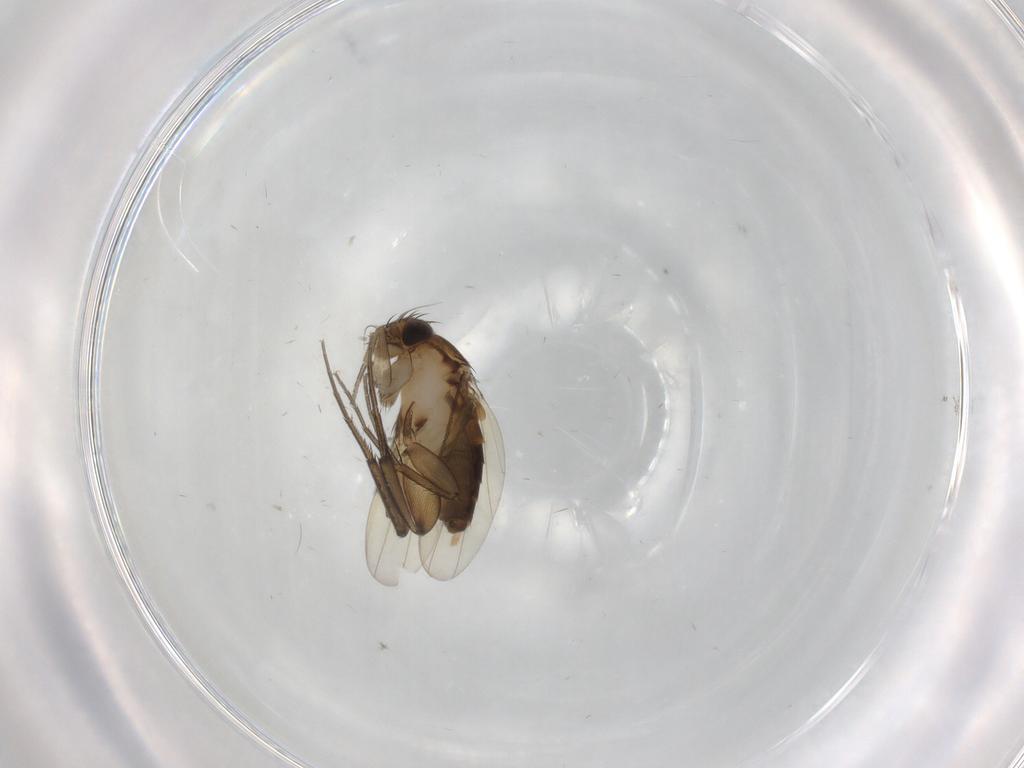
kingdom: Animalia
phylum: Arthropoda
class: Insecta
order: Diptera
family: Phoridae
